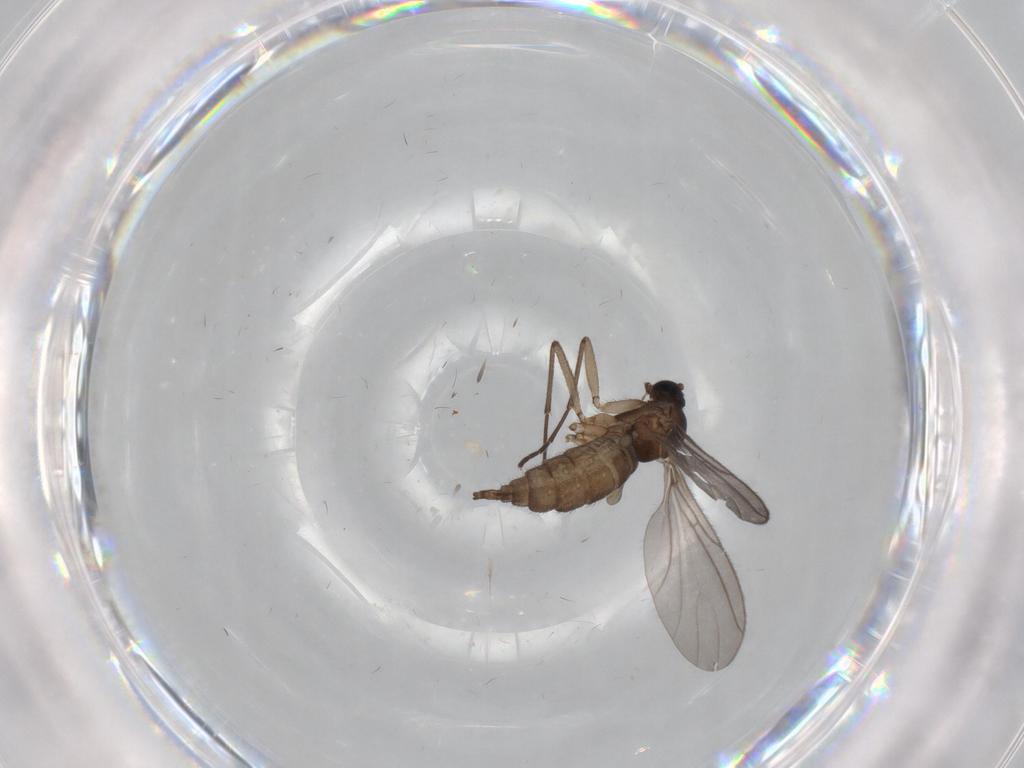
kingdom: Animalia
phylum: Arthropoda
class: Insecta
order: Diptera
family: Sciaridae
